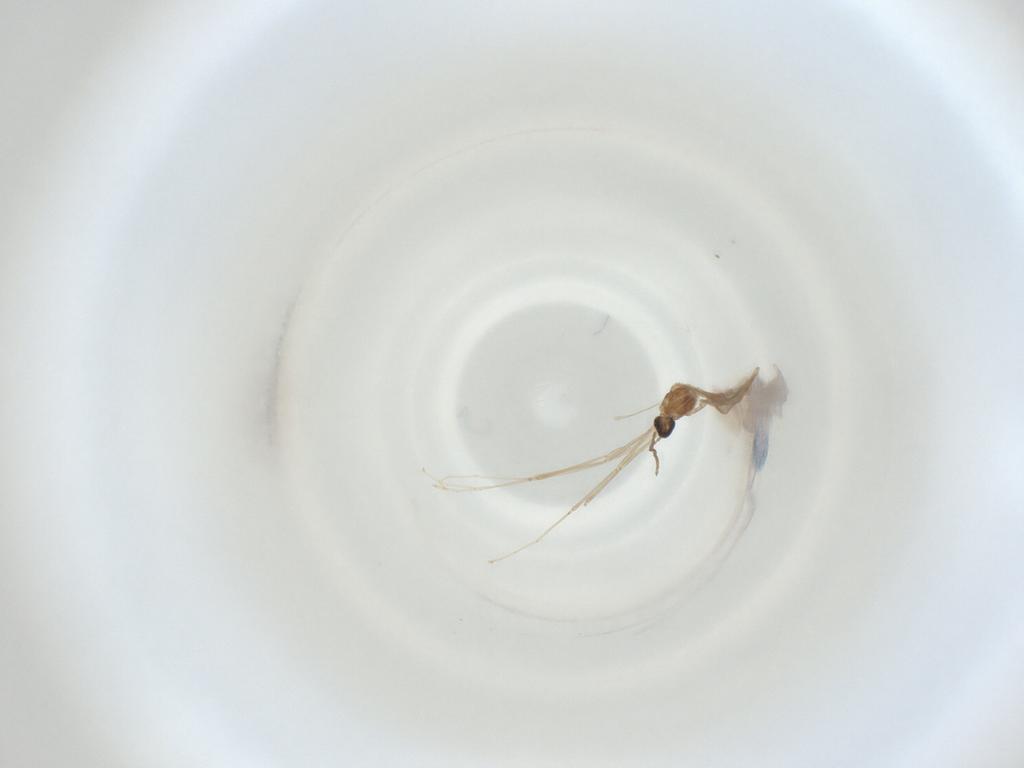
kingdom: Animalia
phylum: Arthropoda
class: Insecta
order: Diptera
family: Cecidomyiidae
